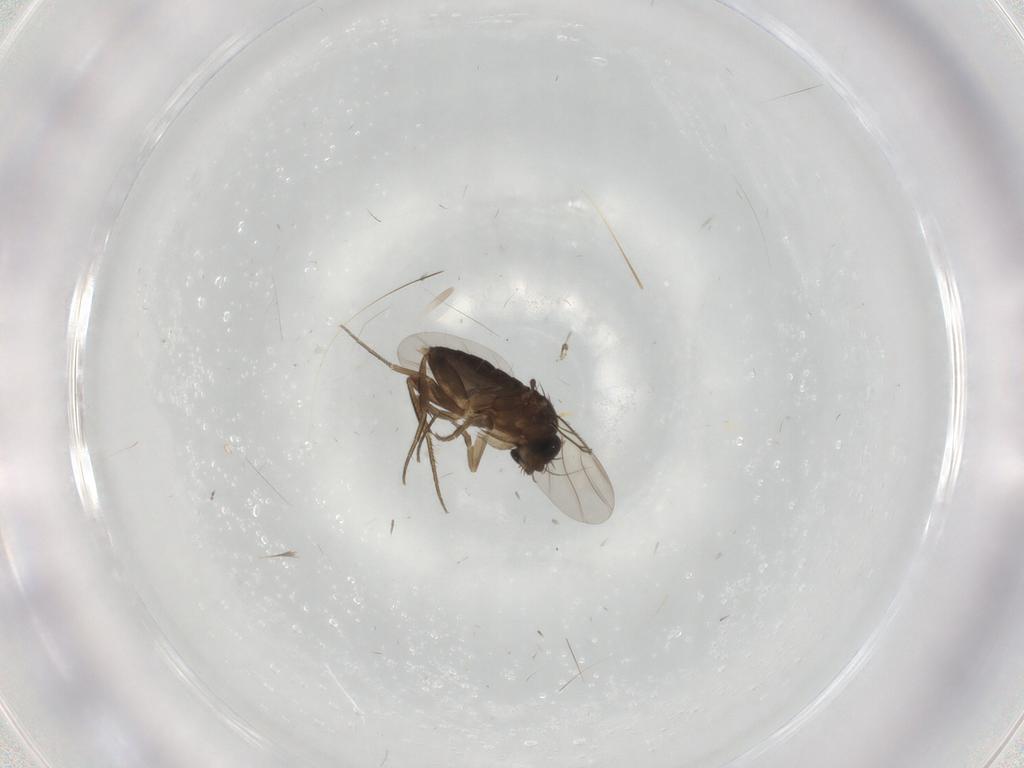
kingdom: Animalia
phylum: Arthropoda
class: Insecta
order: Diptera
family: Phoridae
